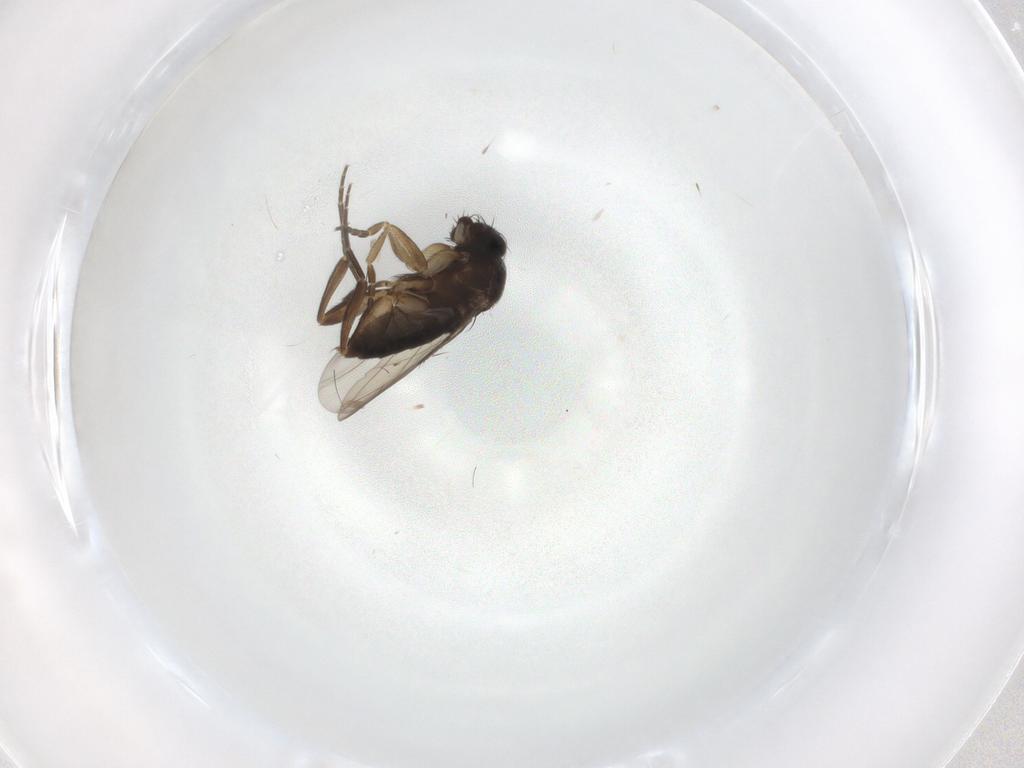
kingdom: Animalia
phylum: Arthropoda
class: Insecta
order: Diptera
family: Phoridae
